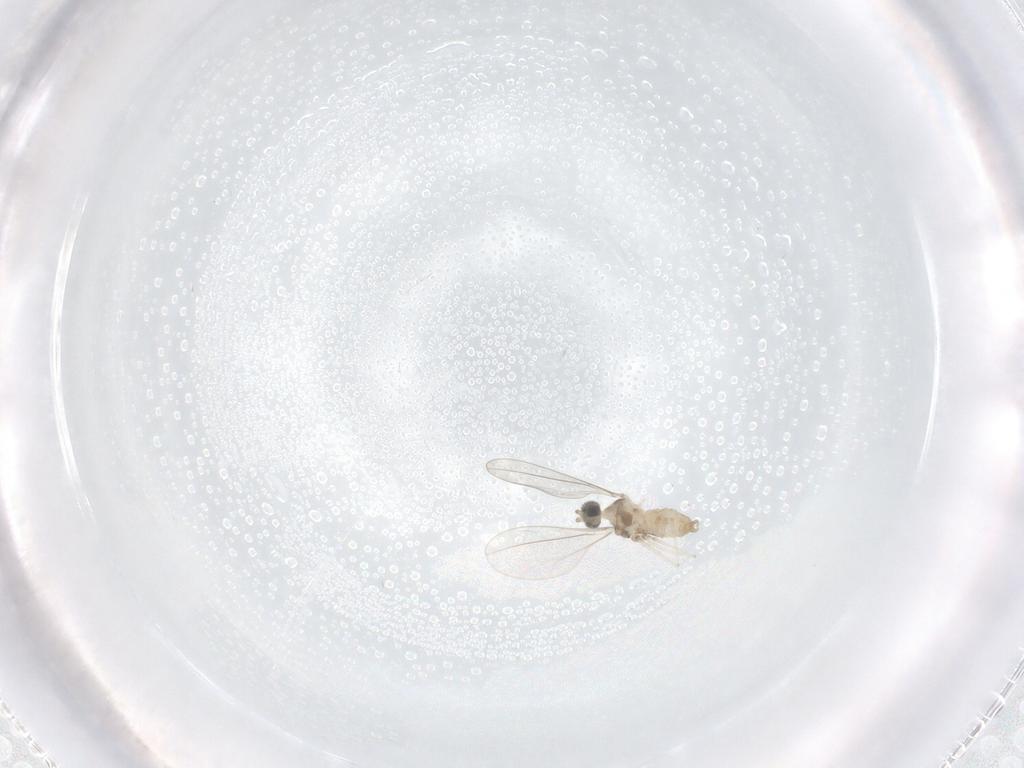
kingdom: Animalia
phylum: Arthropoda
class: Insecta
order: Diptera
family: Cecidomyiidae
